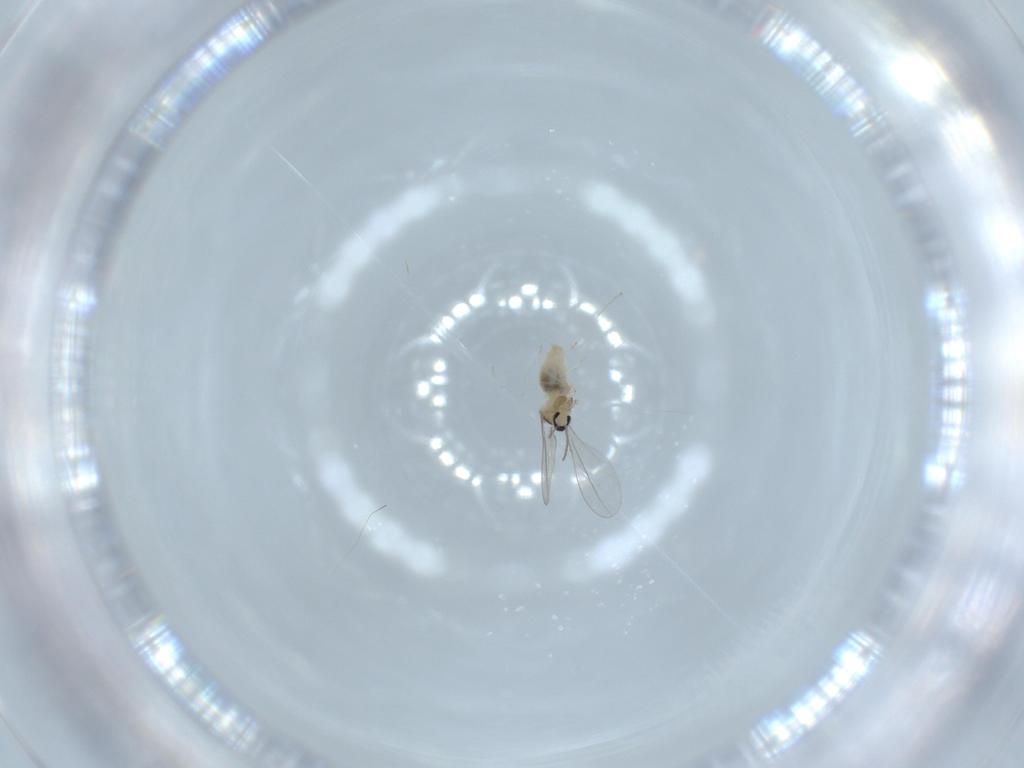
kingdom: Animalia
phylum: Arthropoda
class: Insecta
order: Diptera
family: Cecidomyiidae
